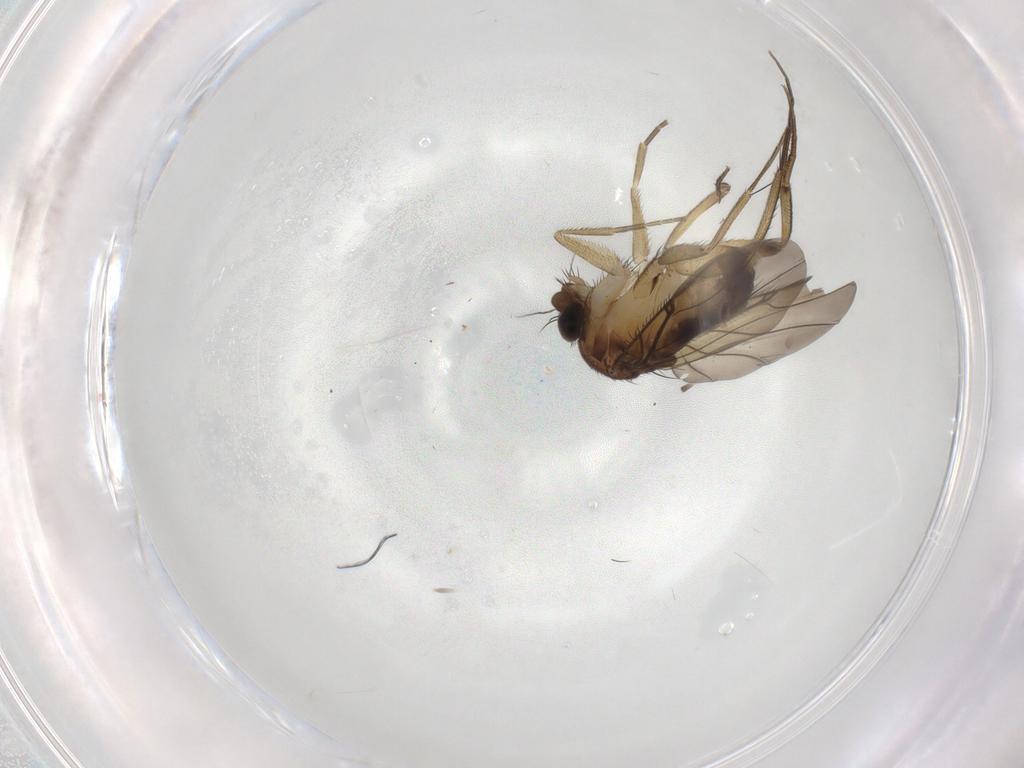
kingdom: Animalia
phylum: Arthropoda
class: Insecta
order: Diptera
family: Phoridae
